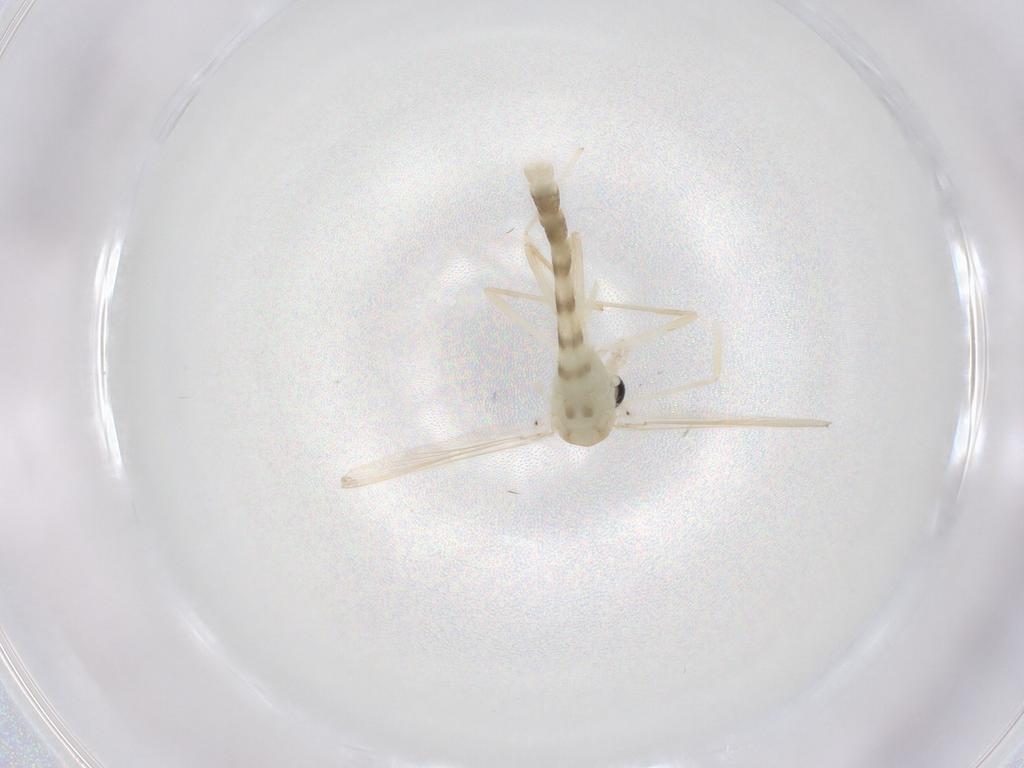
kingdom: Animalia
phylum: Arthropoda
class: Insecta
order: Diptera
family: Chironomidae
